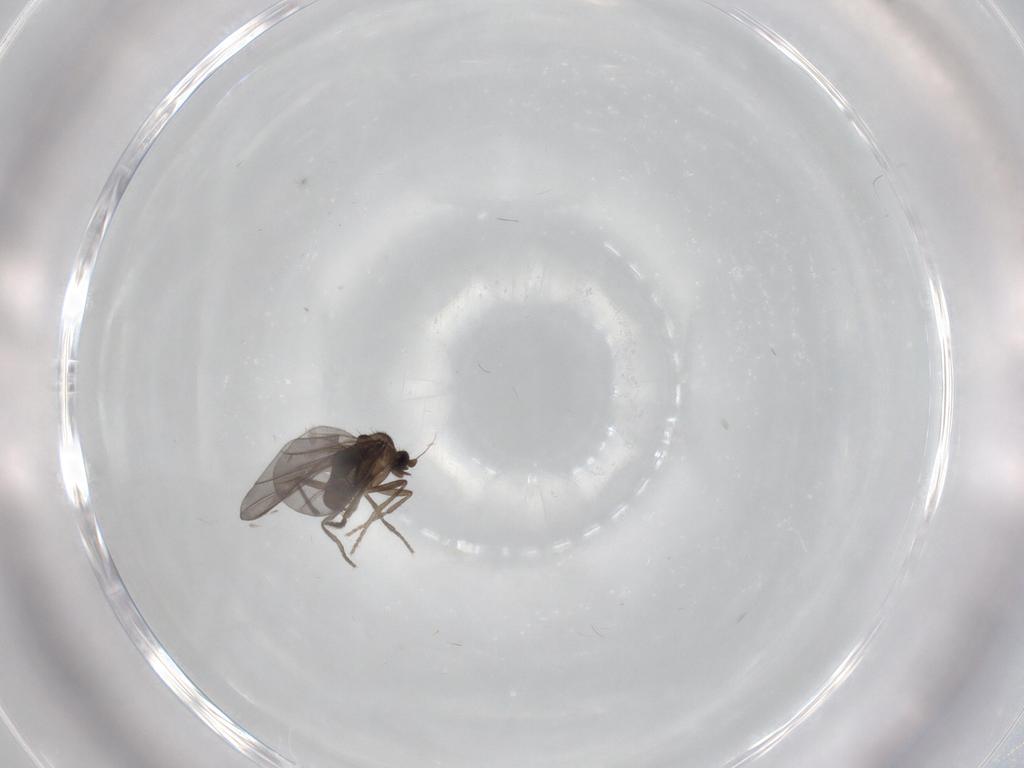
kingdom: Animalia
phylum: Arthropoda
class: Insecta
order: Diptera
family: Phoridae
